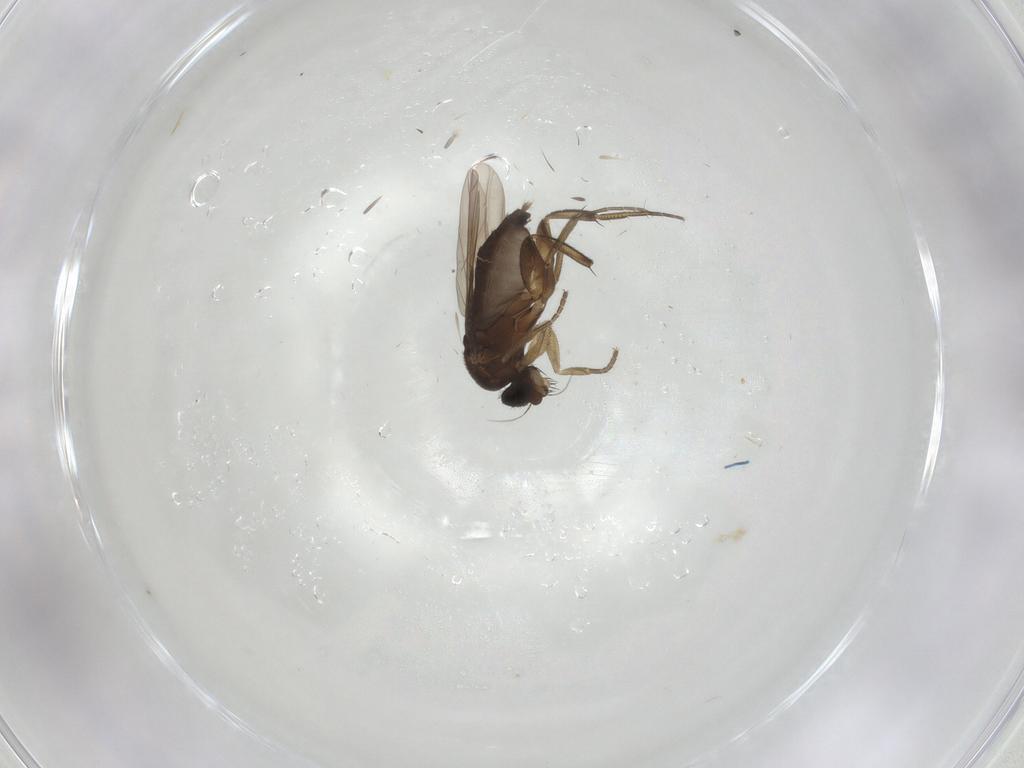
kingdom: Animalia
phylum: Arthropoda
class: Insecta
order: Diptera
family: Phoridae
